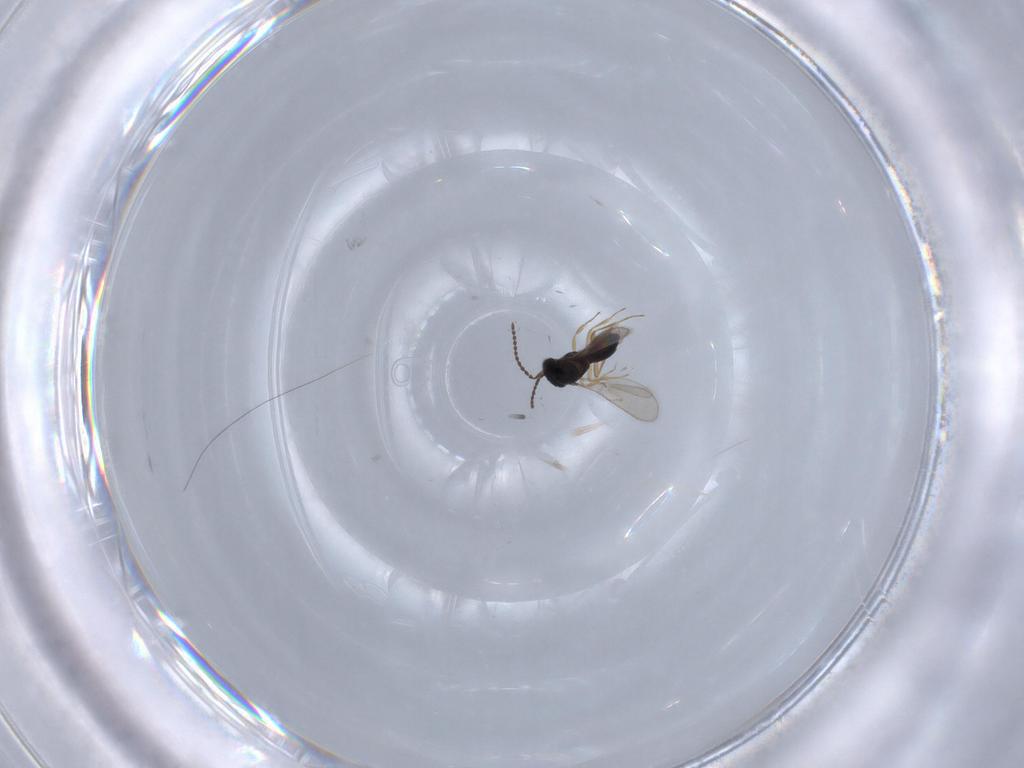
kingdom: Animalia
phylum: Arthropoda
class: Insecta
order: Hymenoptera
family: Scelionidae
